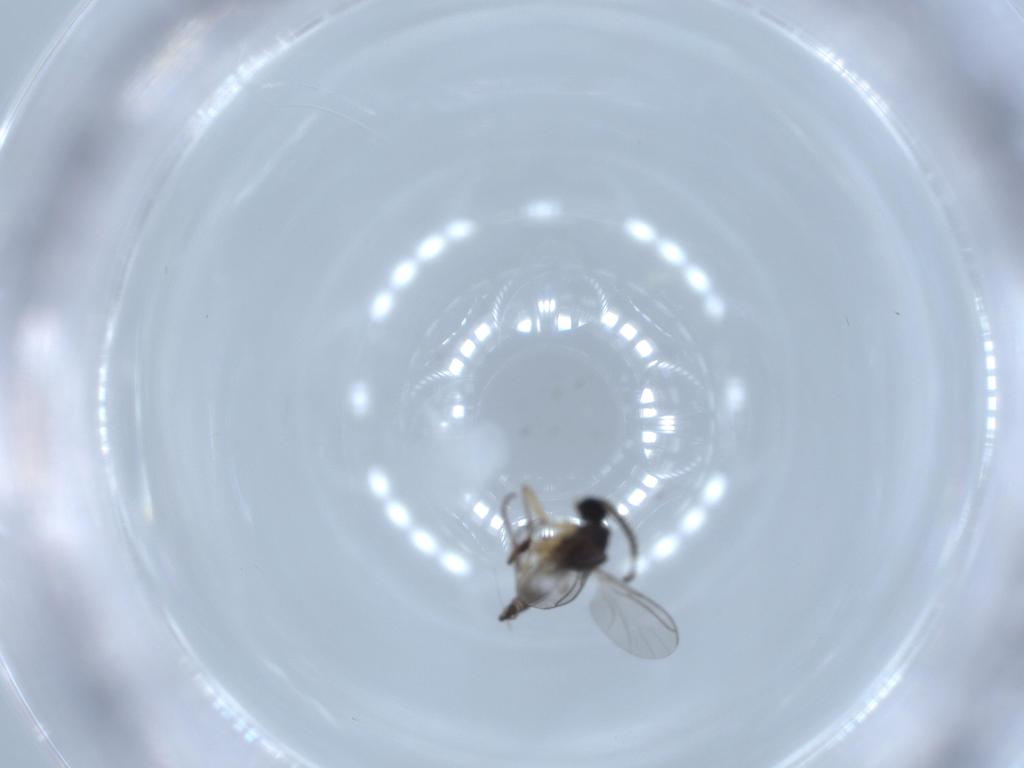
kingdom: Animalia
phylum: Arthropoda
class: Insecta
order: Diptera
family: Sciaridae
